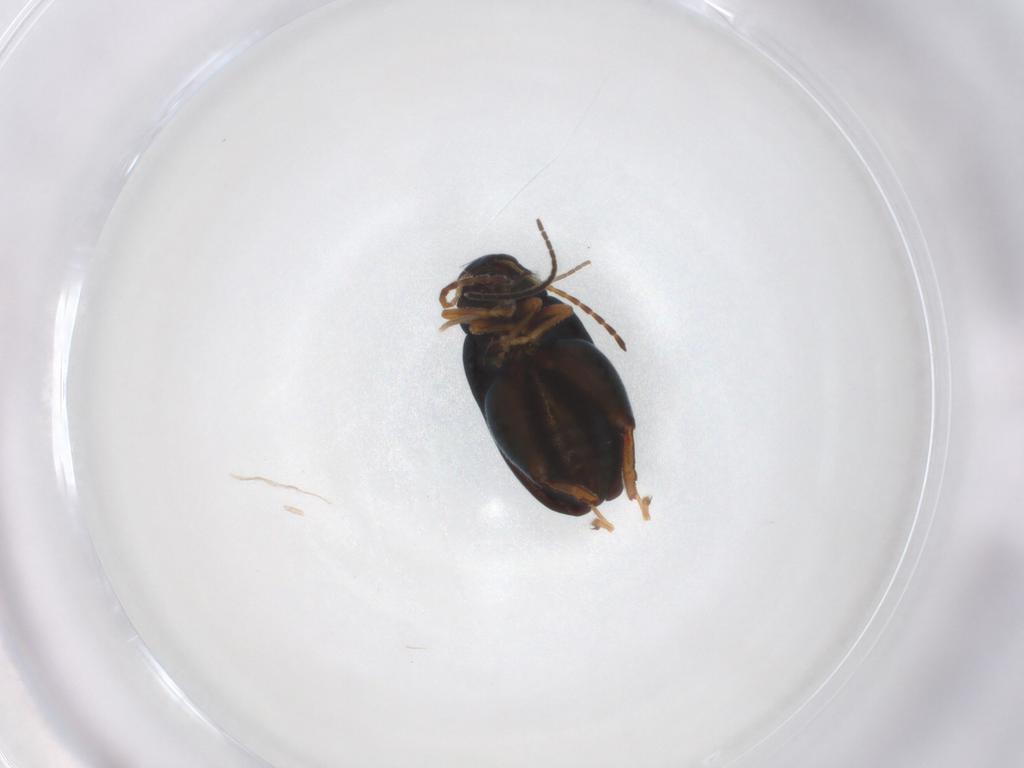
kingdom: Animalia
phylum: Arthropoda
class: Insecta
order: Coleoptera
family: Chrysomelidae
